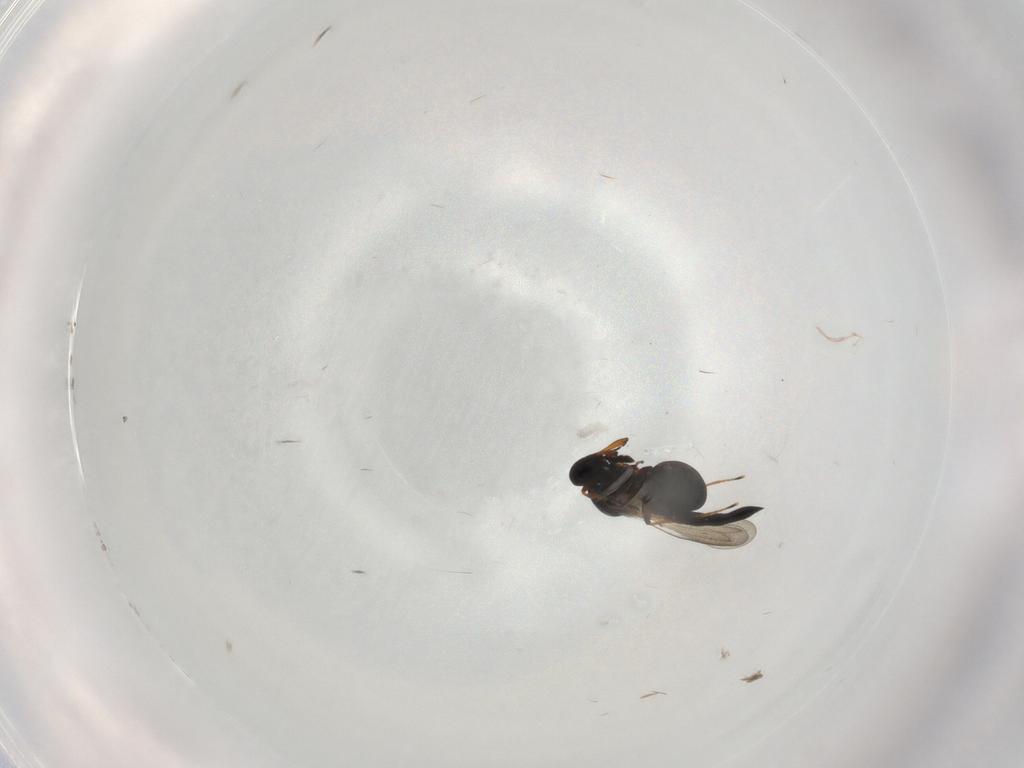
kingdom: Animalia
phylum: Arthropoda
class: Insecta
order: Hymenoptera
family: Platygastridae
